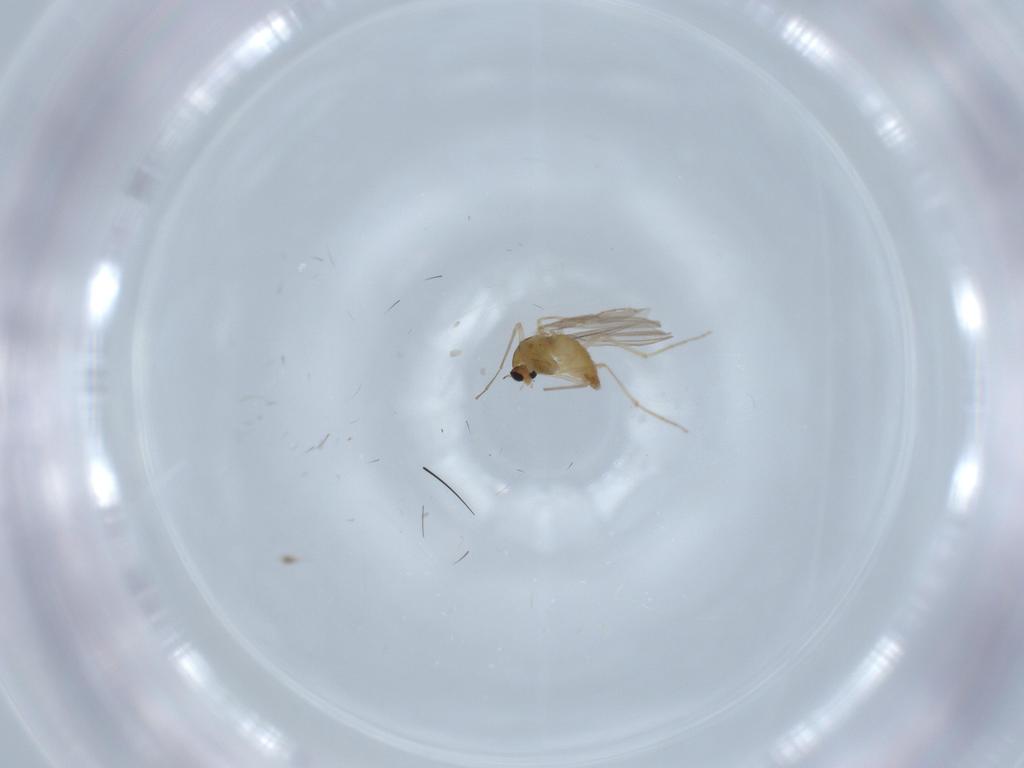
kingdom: Animalia
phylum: Arthropoda
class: Insecta
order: Diptera
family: Chironomidae
